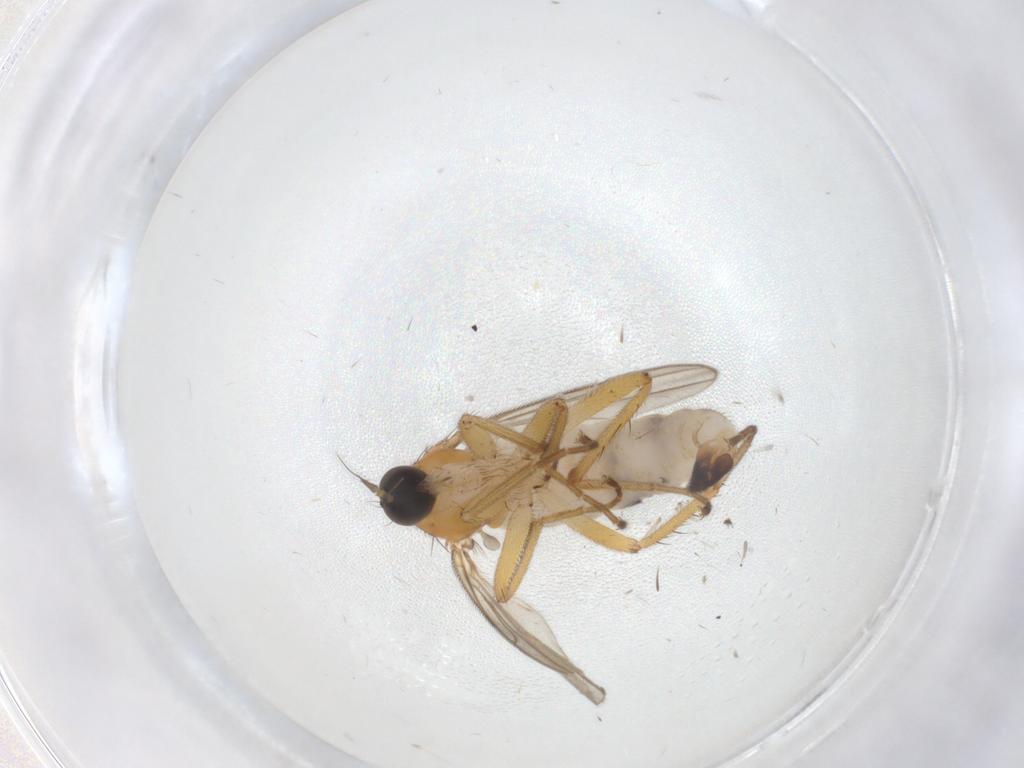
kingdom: Animalia
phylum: Arthropoda
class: Insecta
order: Diptera
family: Hybotidae
